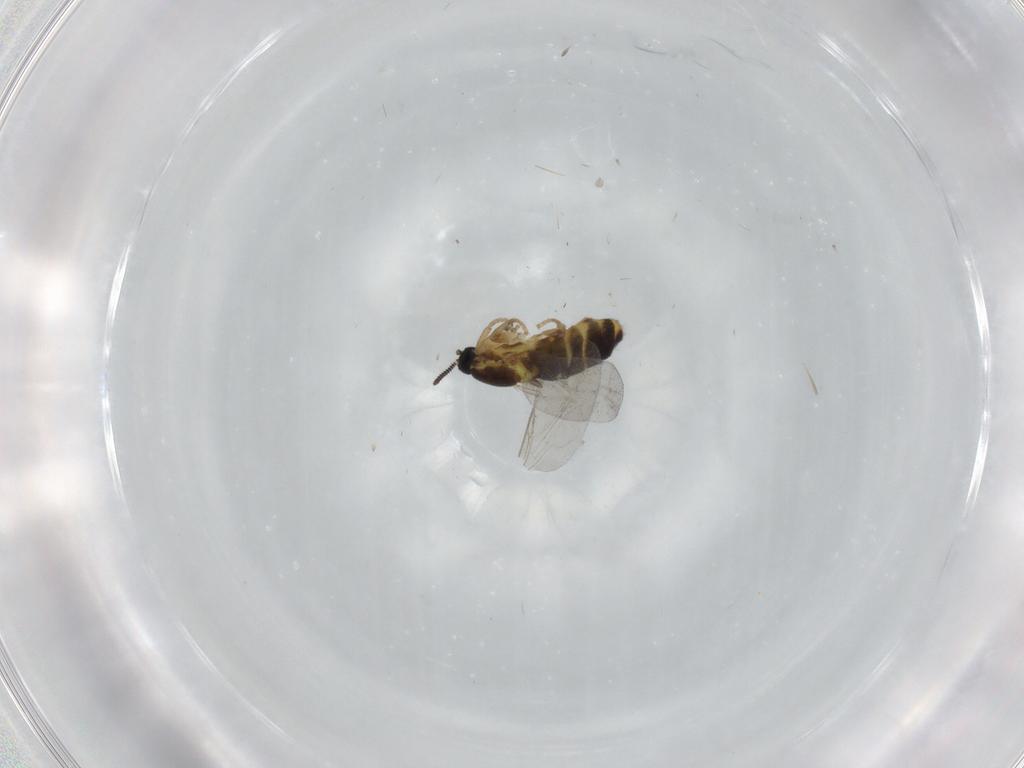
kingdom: Animalia
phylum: Arthropoda
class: Insecta
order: Diptera
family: Scatopsidae
